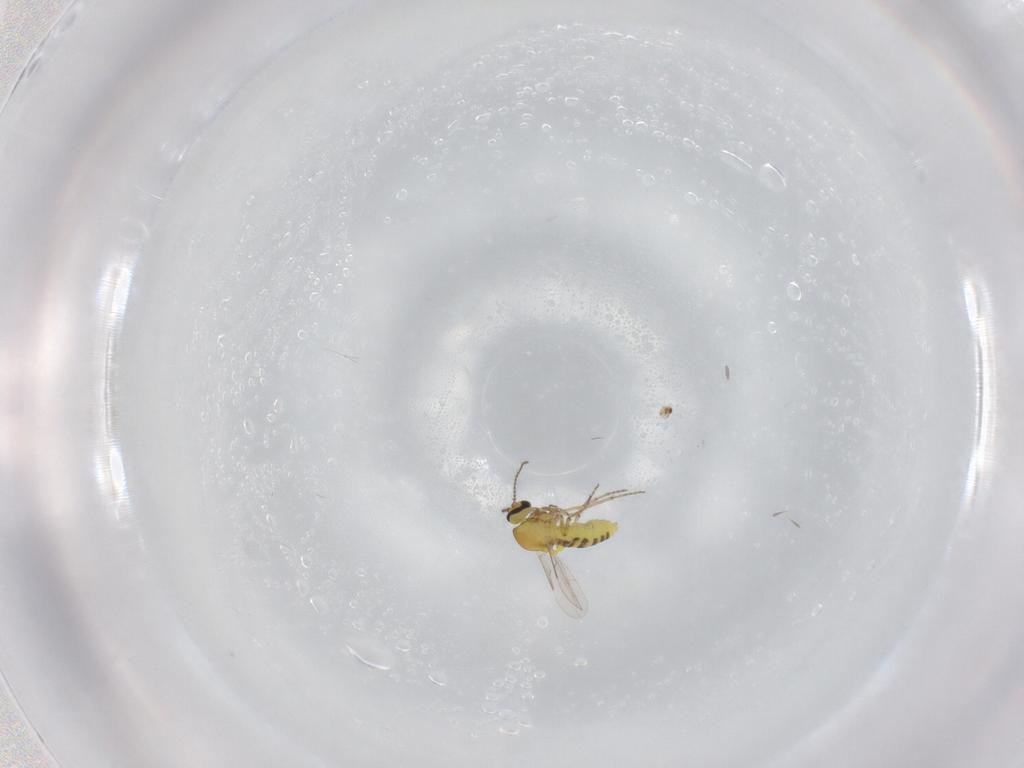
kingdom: Animalia
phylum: Arthropoda
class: Insecta
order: Diptera
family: Ceratopogonidae
